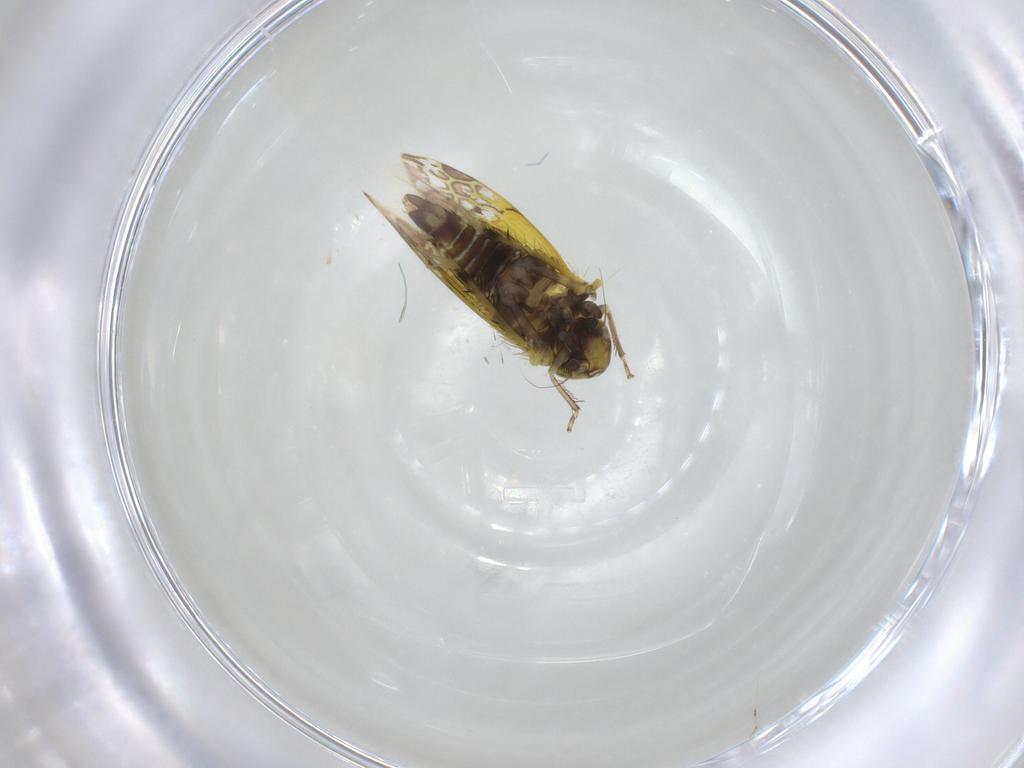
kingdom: Animalia
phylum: Arthropoda
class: Insecta
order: Hemiptera
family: Cicadellidae
